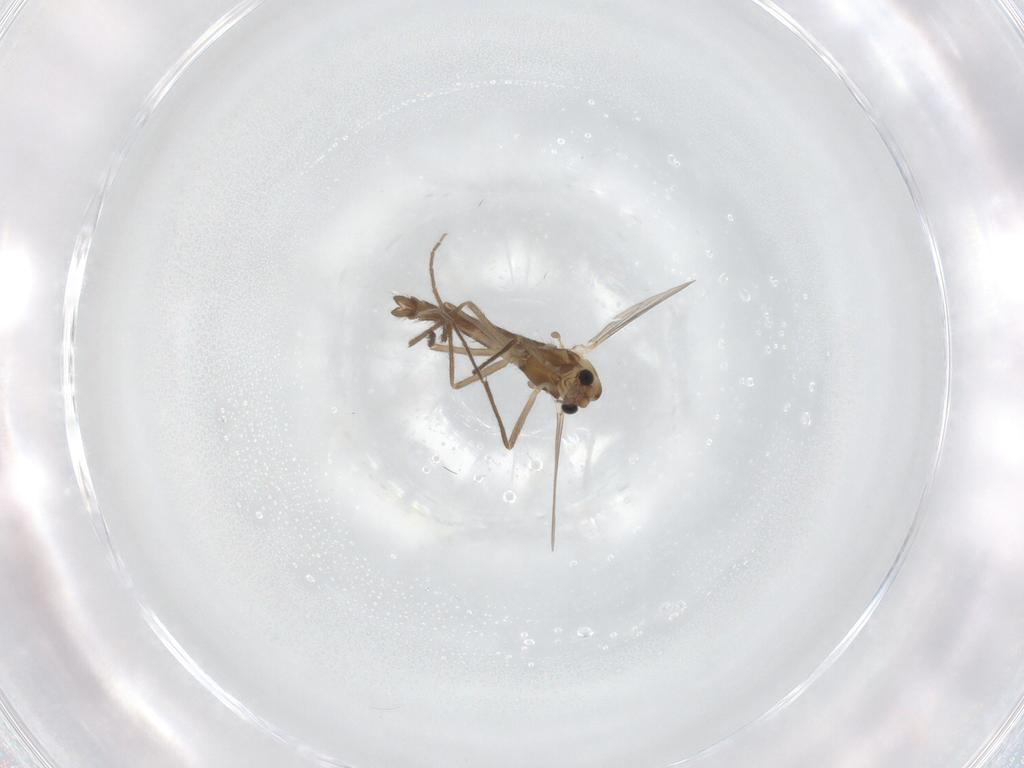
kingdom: Animalia
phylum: Arthropoda
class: Insecta
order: Diptera
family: Chironomidae
